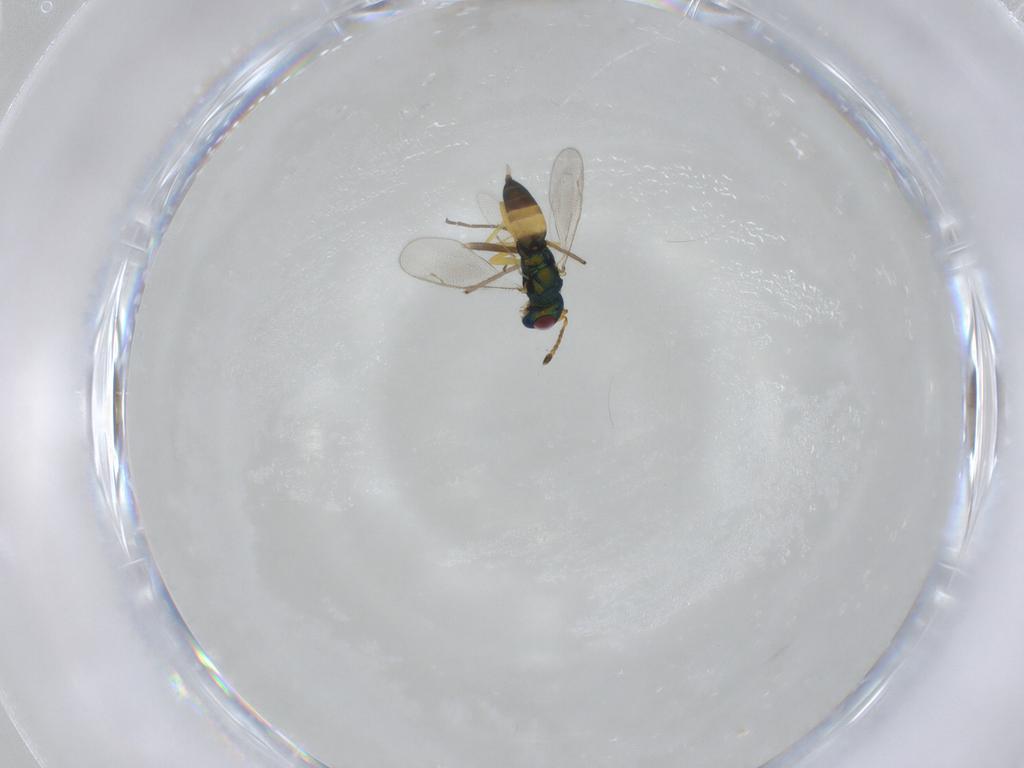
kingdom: Animalia
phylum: Arthropoda
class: Insecta
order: Hymenoptera
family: Pteromalidae
